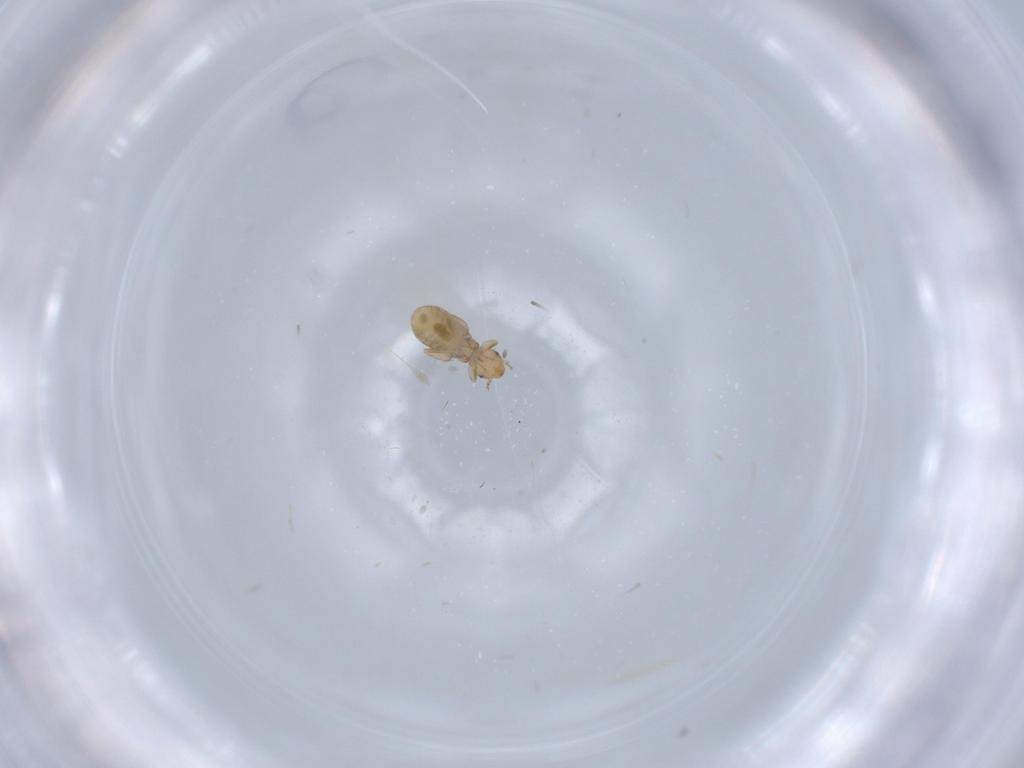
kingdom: Animalia
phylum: Arthropoda
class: Insecta
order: Psocodea
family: Liposcelididae
